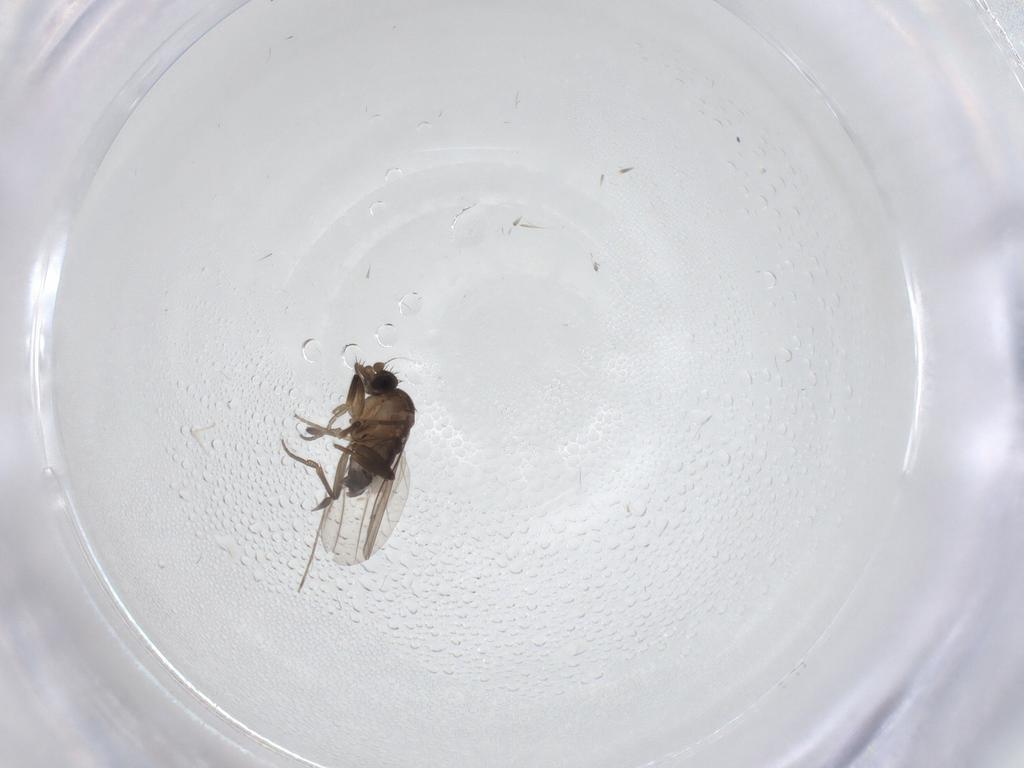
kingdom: Animalia
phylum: Arthropoda
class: Insecta
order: Diptera
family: Phoridae
